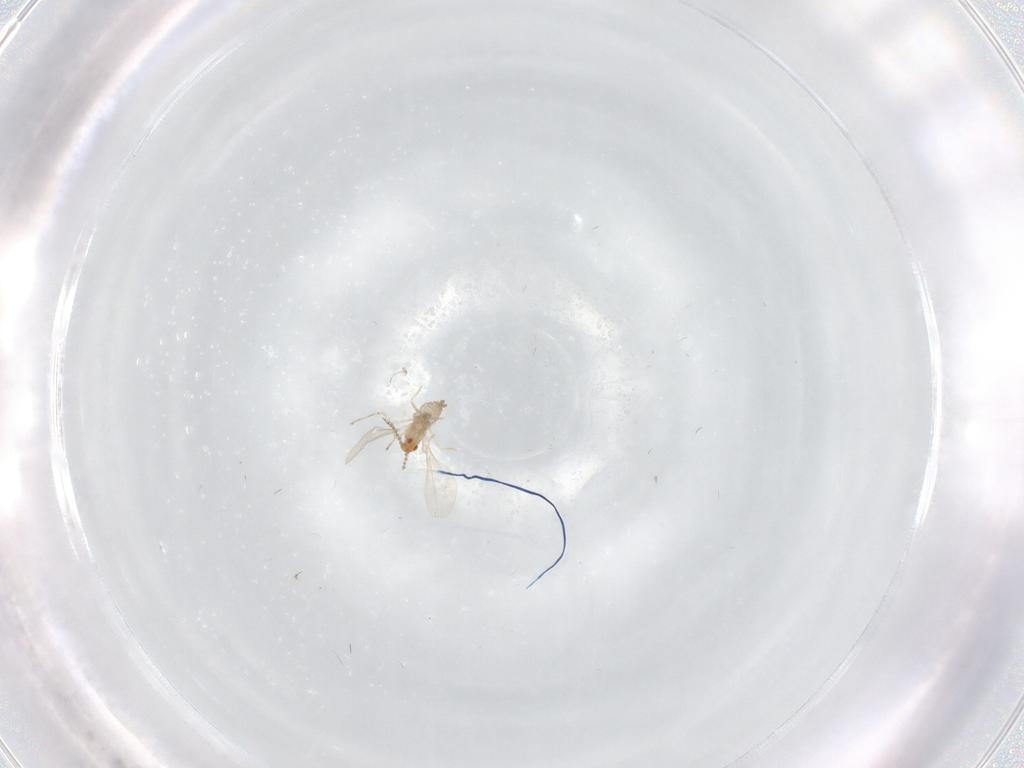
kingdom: Animalia
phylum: Arthropoda
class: Insecta
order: Diptera
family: Cecidomyiidae
